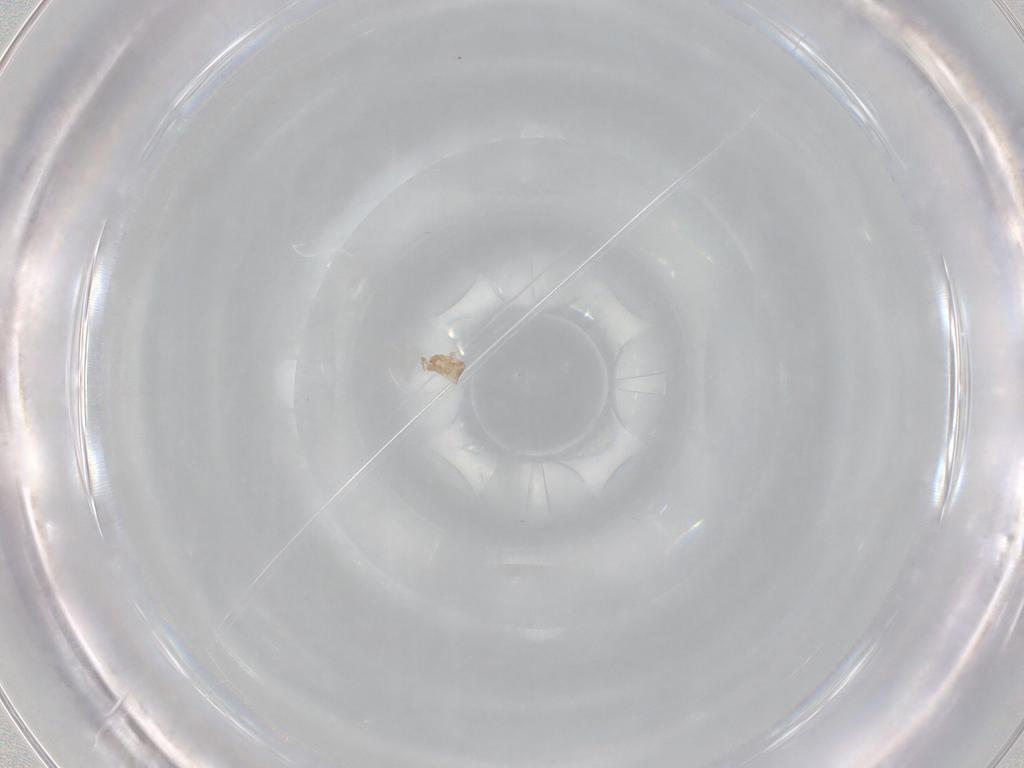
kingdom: Animalia
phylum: Arthropoda
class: Arachnida
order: Mesostigmata
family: Ascidae
